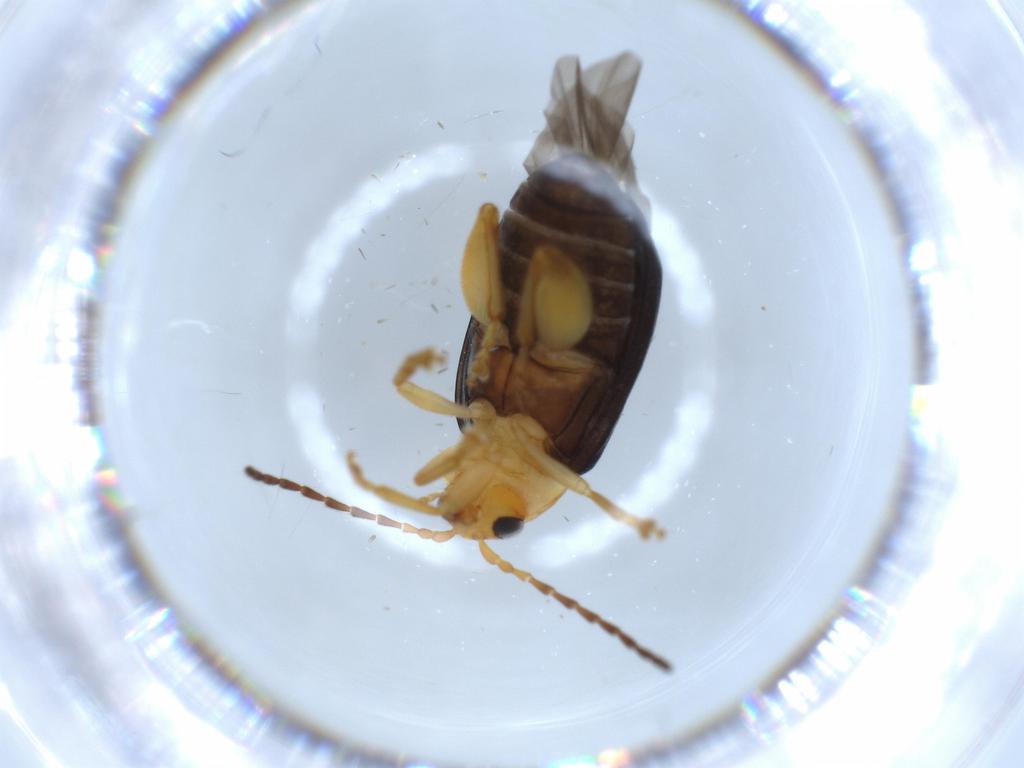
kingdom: Animalia
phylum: Arthropoda
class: Insecta
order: Coleoptera
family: Chrysomelidae
